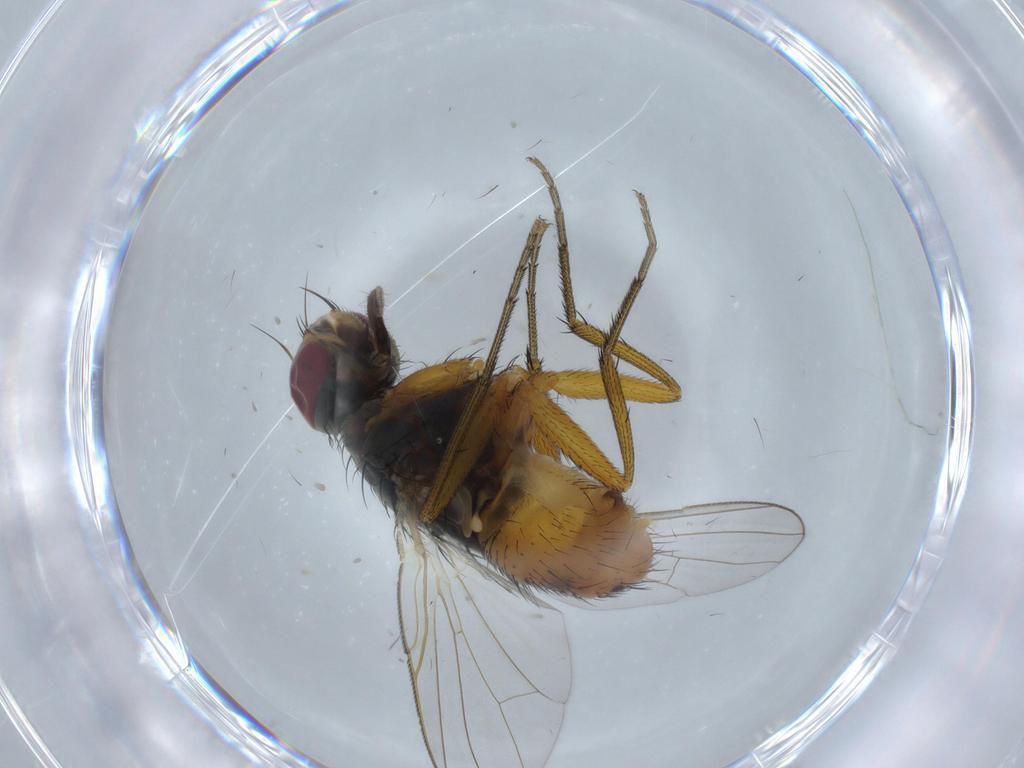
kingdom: Animalia
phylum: Arthropoda
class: Insecta
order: Diptera
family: Muscidae
